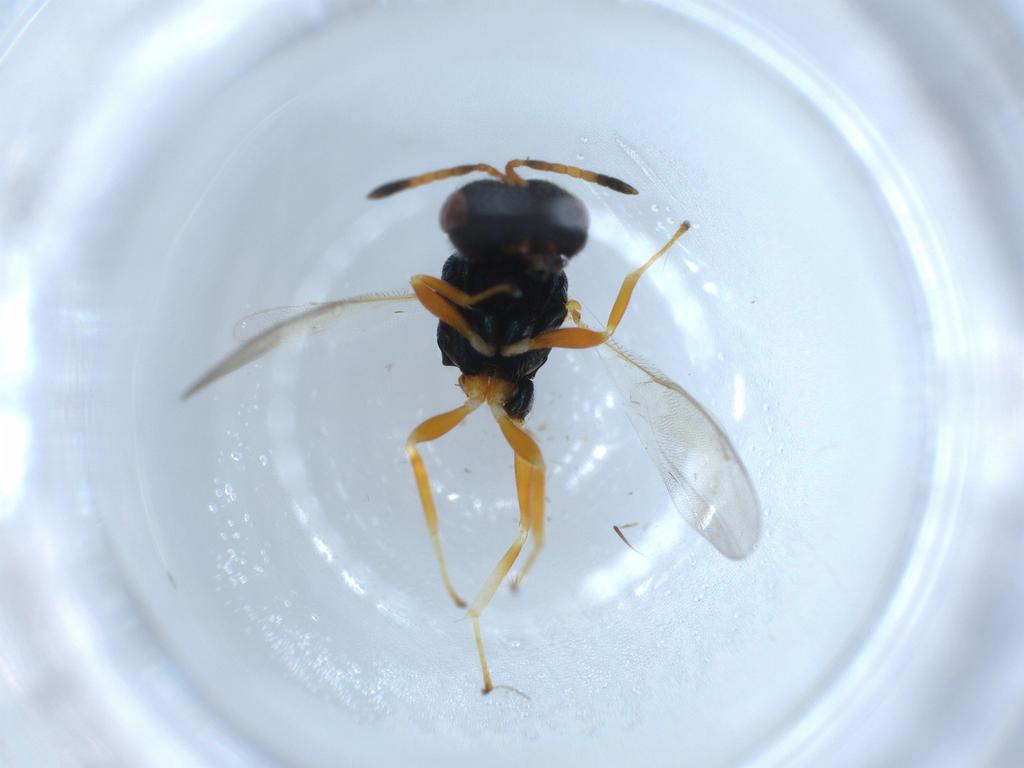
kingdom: Animalia
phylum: Arthropoda
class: Insecta
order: Hymenoptera
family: Pteromalidae
